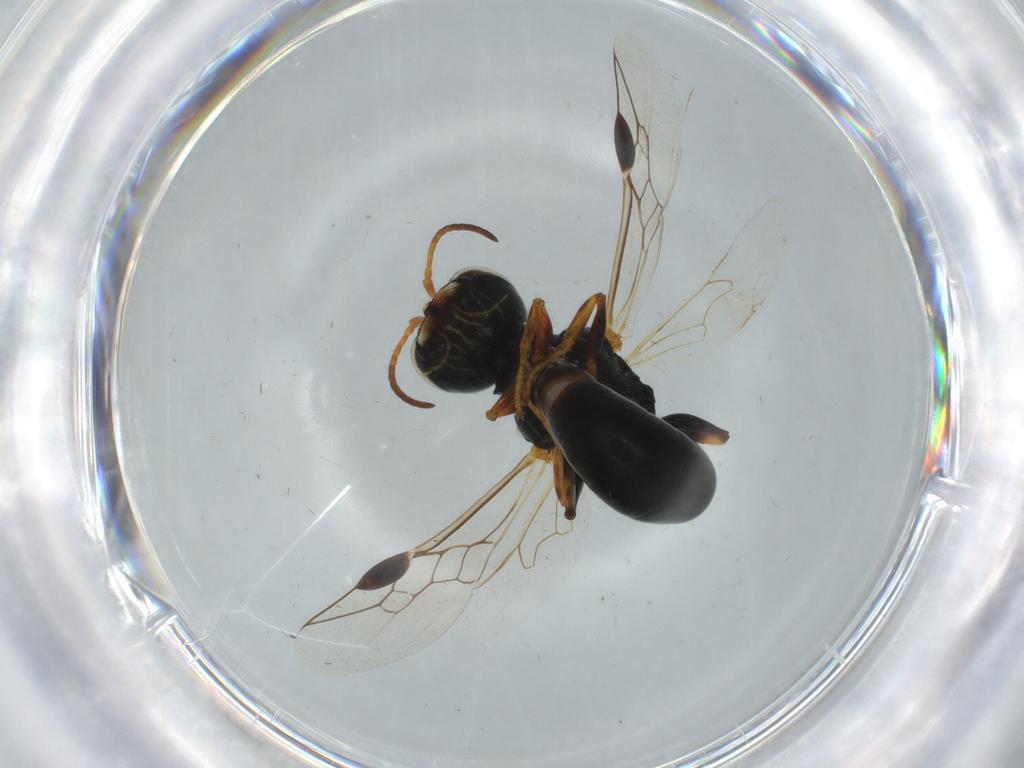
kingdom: Animalia
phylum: Arthropoda
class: Insecta
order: Hymenoptera
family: Crabronidae
